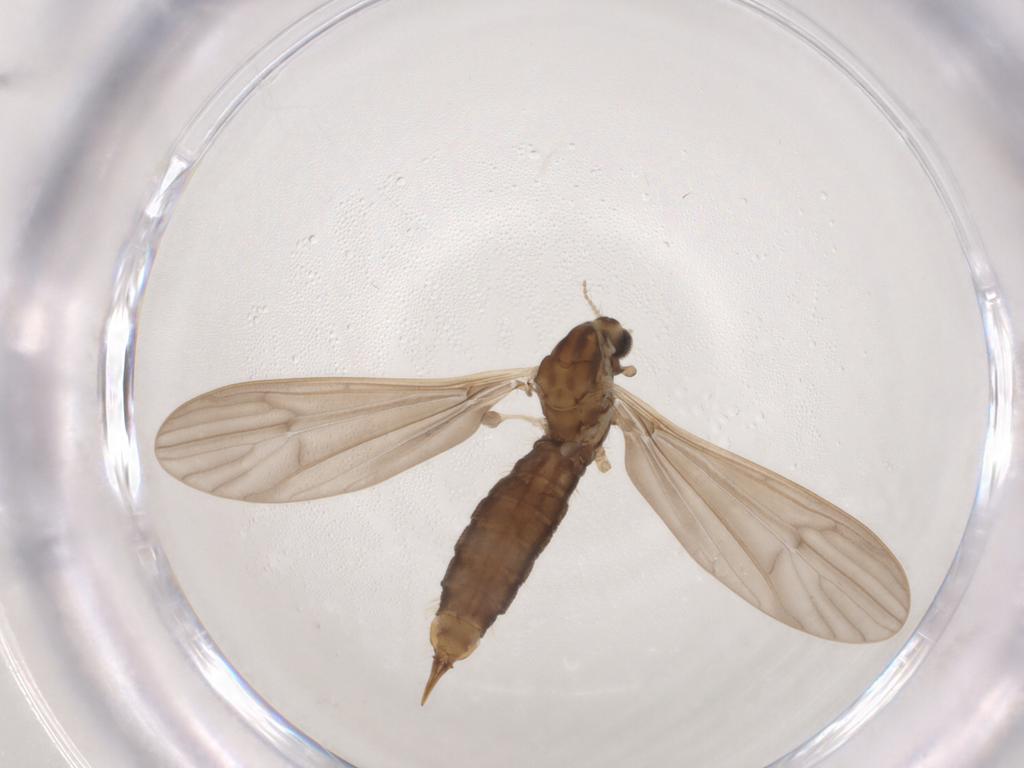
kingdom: Animalia
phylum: Arthropoda
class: Insecta
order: Diptera
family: Limoniidae
